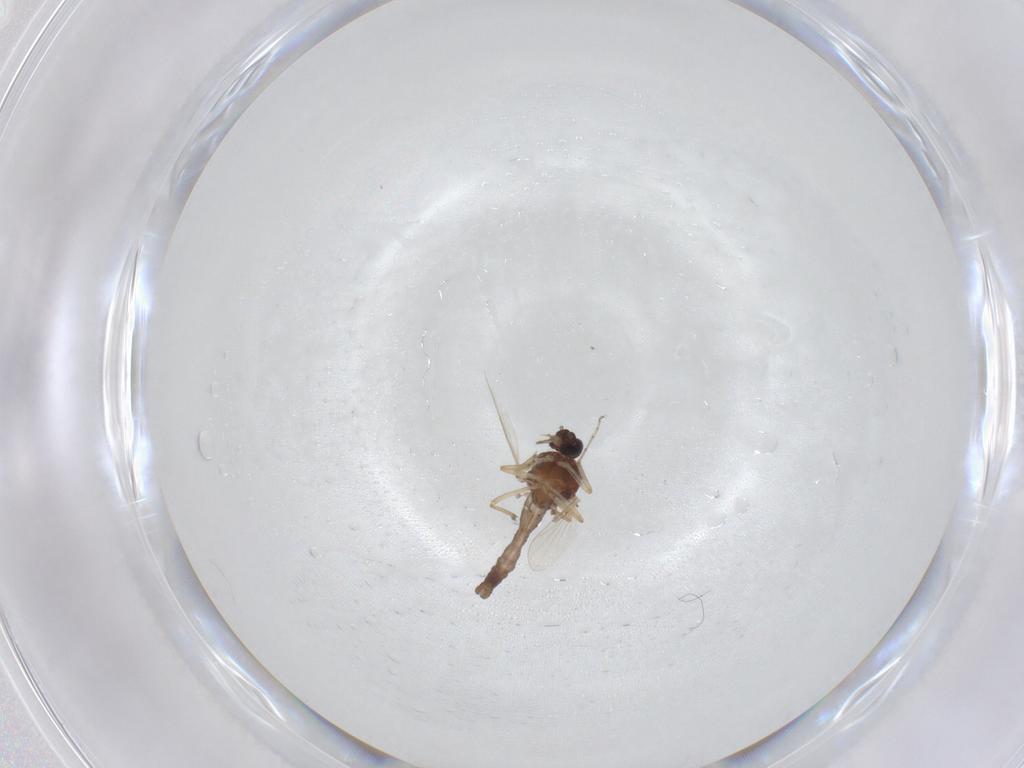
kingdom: Animalia
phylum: Arthropoda
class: Insecta
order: Diptera
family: Ceratopogonidae
